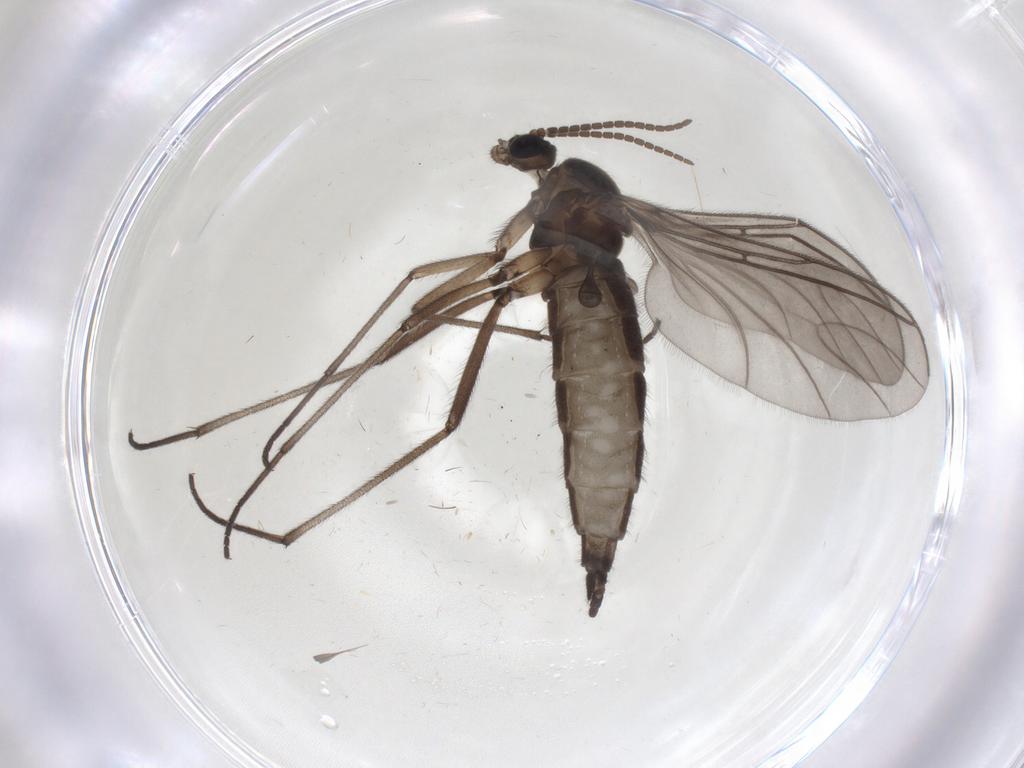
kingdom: Animalia
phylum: Arthropoda
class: Insecta
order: Diptera
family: Sciaridae
